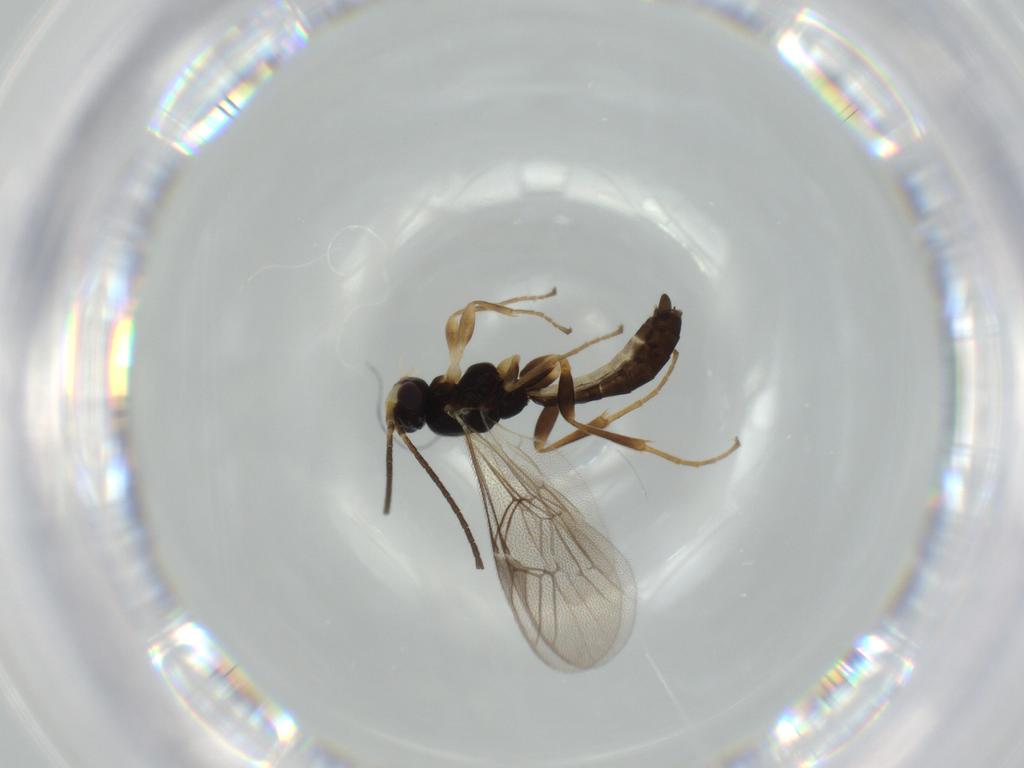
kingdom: Animalia
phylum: Arthropoda
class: Insecta
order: Hymenoptera
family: Ichneumonidae
